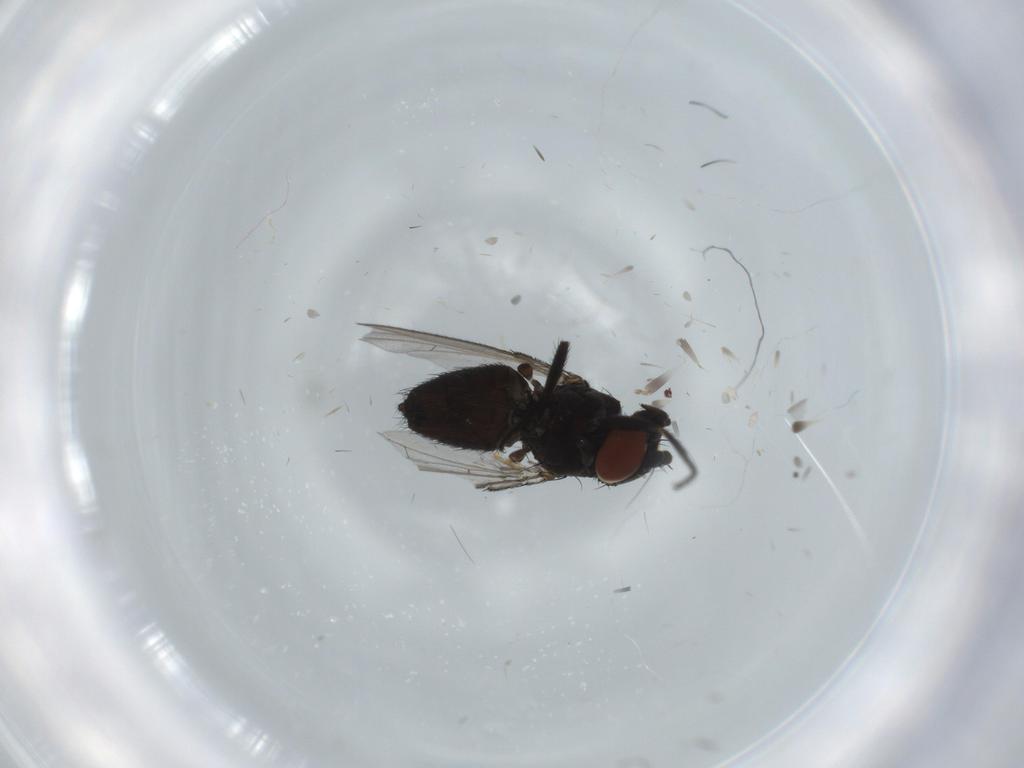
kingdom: Animalia
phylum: Arthropoda
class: Insecta
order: Diptera
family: Milichiidae
